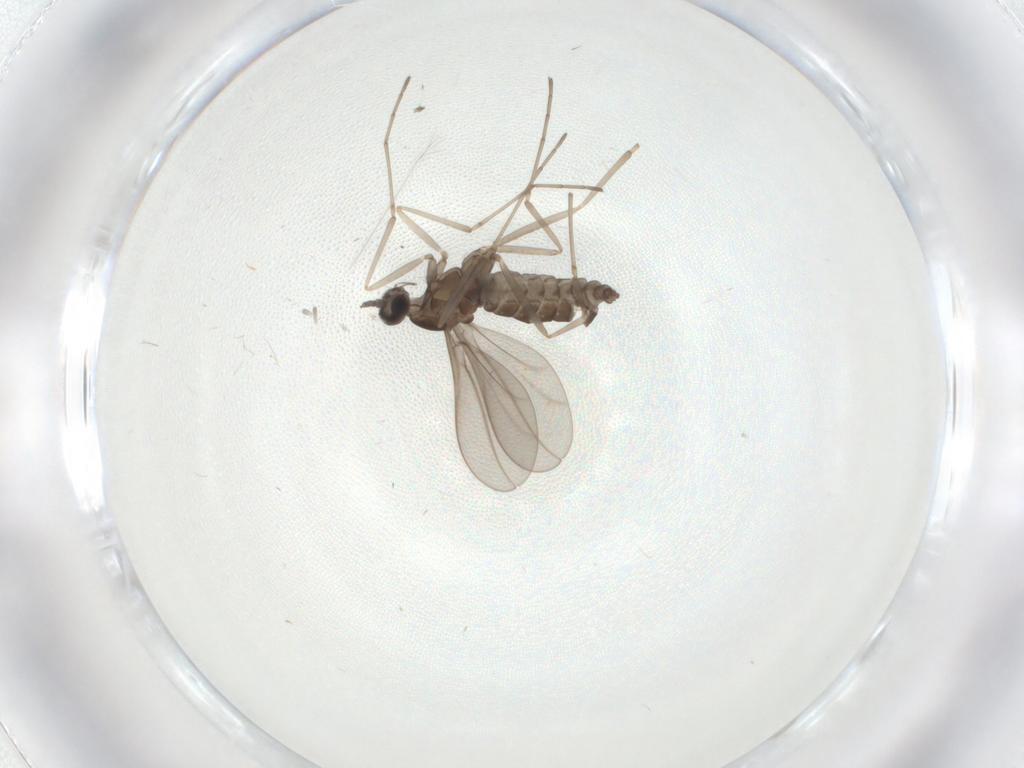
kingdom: Animalia
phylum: Arthropoda
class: Insecta
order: Diptera
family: Cecidomyiidae
